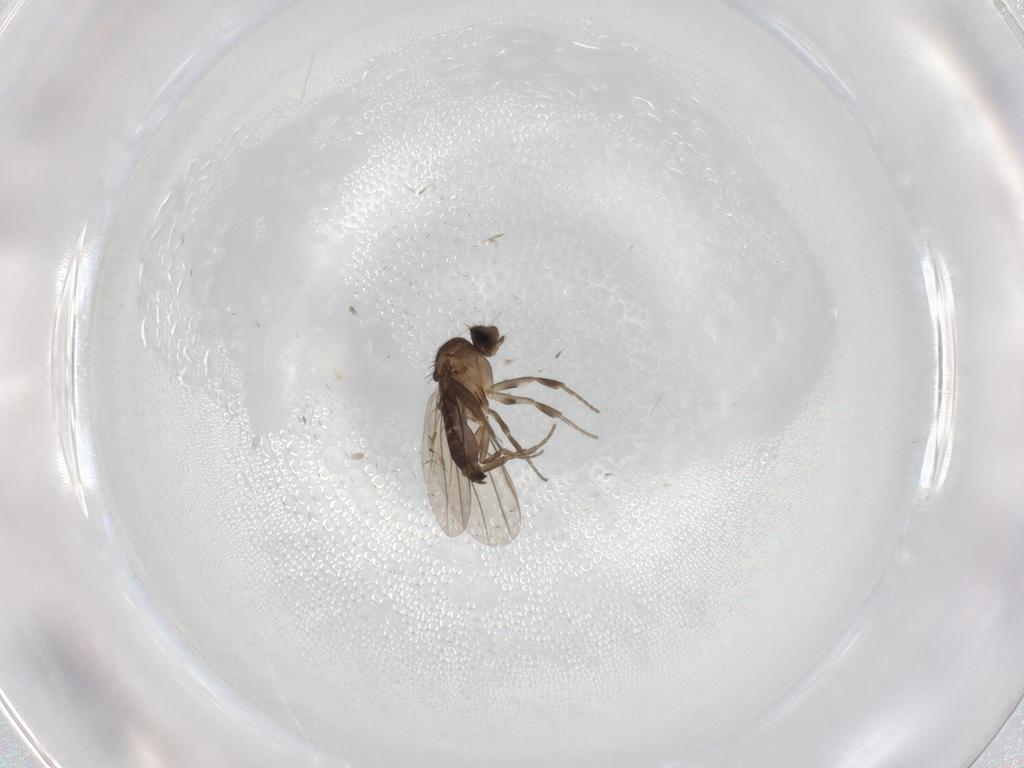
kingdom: Animalia
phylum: Arthropoda
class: Insecta
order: Diptera
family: Phoridae
